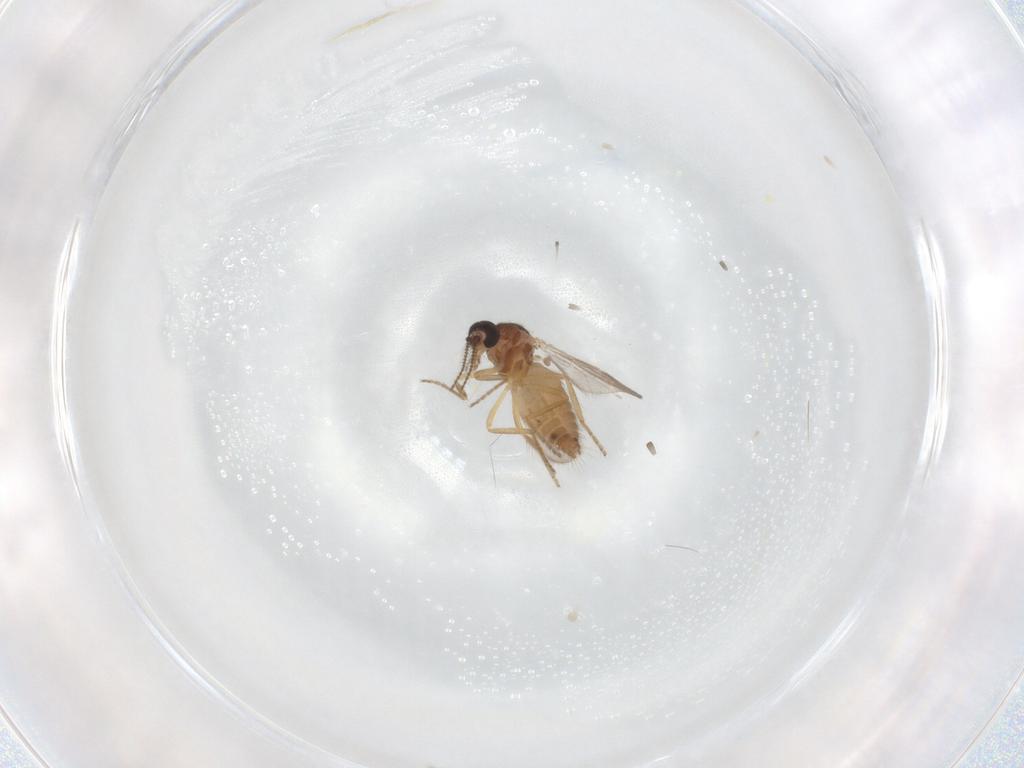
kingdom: Animalia
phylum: Arthropoda
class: Insecta
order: Diptera
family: Ceratopogonidae
